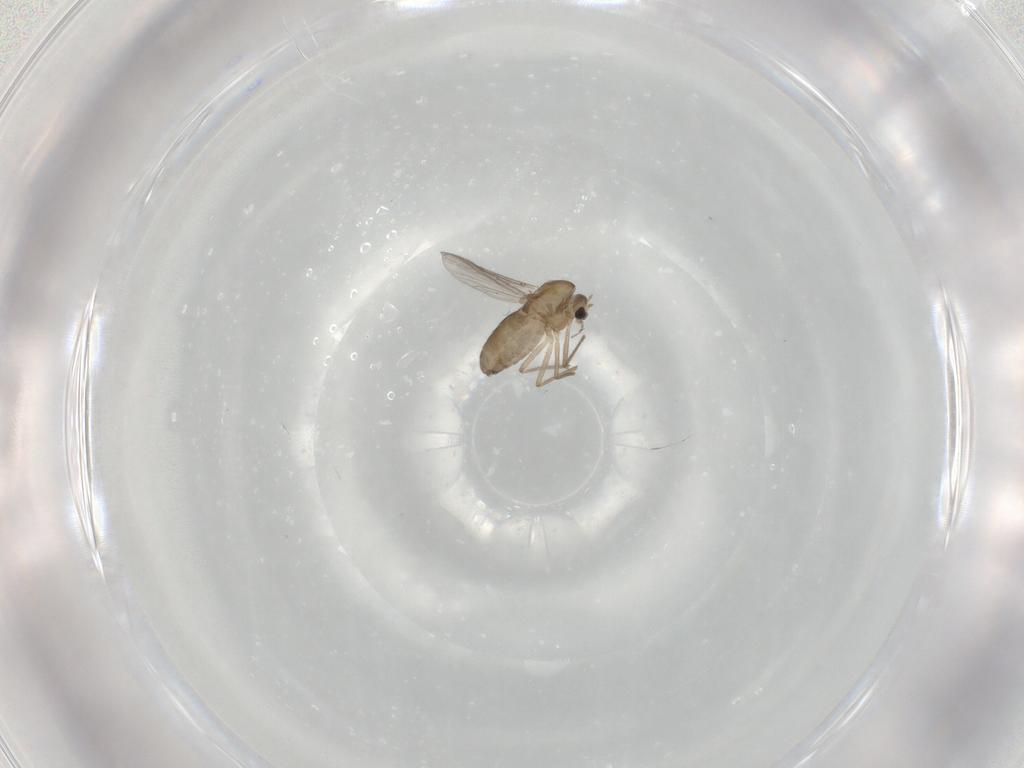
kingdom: Animalia
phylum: Arthropoda
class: Insecta
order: Diptera
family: Chironomidae
